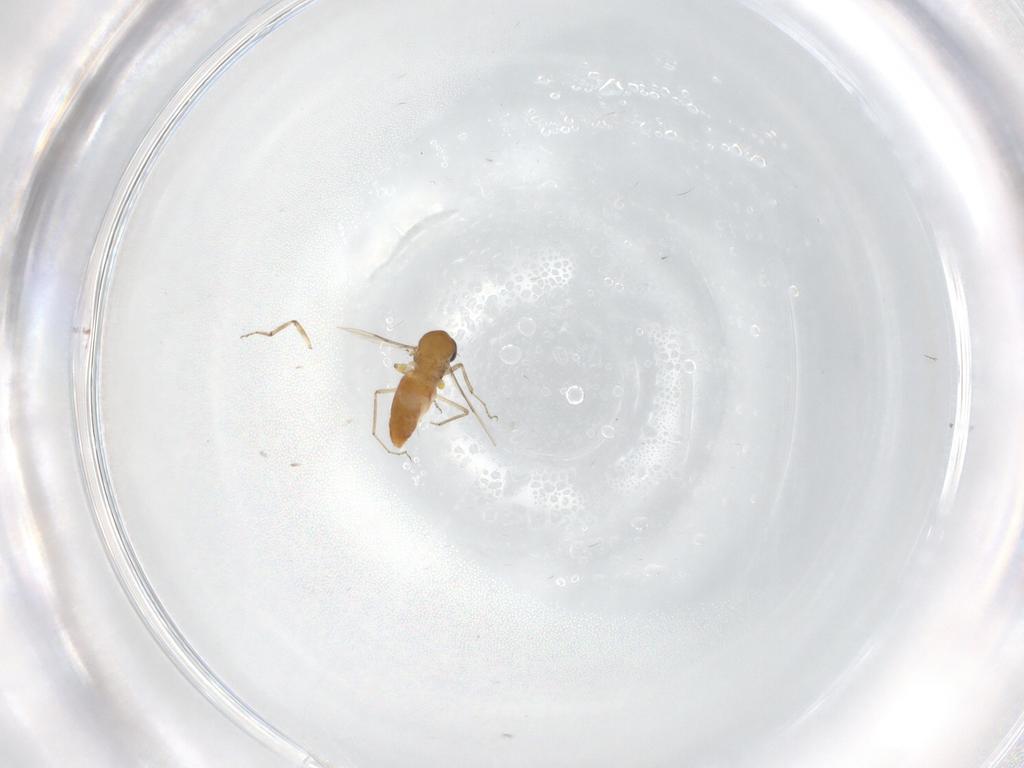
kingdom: Animalia
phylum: Arthropoda
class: Insecta
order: Diptera
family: Ceratopogonidae
